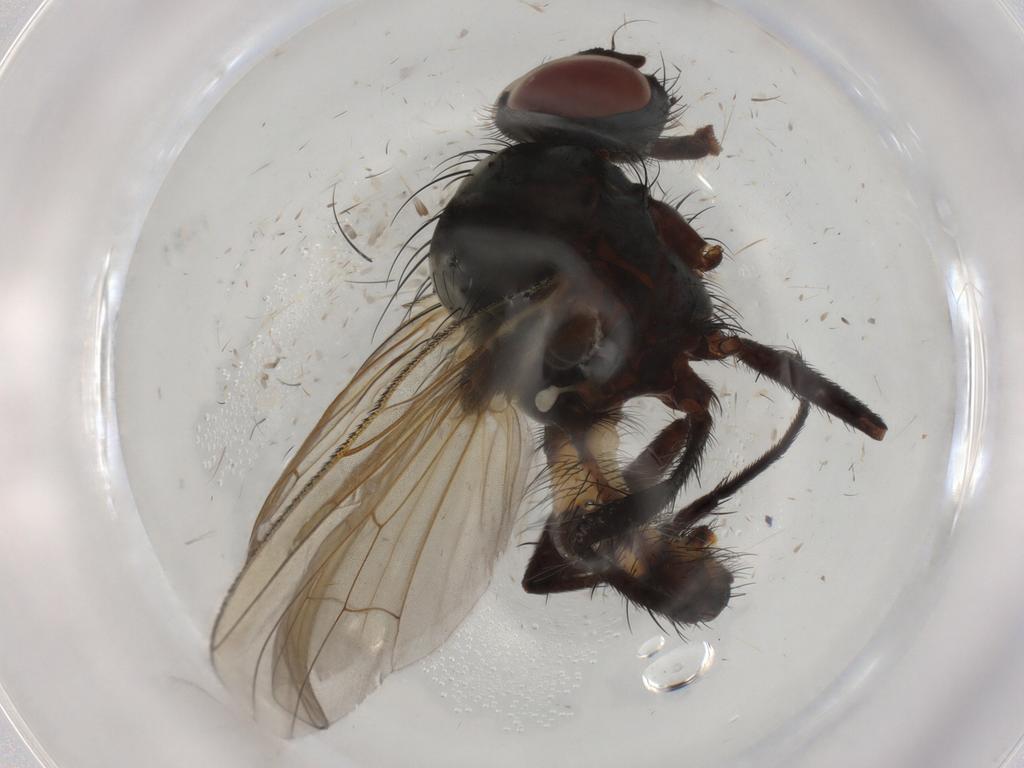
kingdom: Animalia
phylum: Arthropoda
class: Insecta
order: Diptera
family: Anthomyiidae
